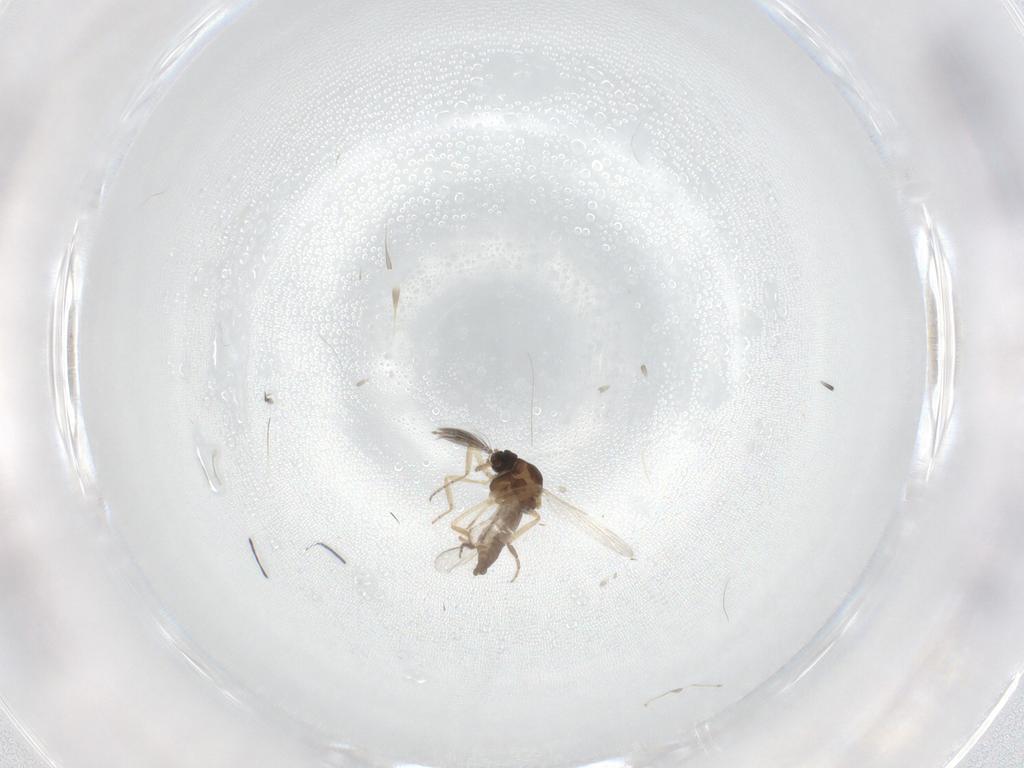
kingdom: Animalia
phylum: Arthropoda
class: Insecta
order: Diptera
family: Ceratopogonidae
